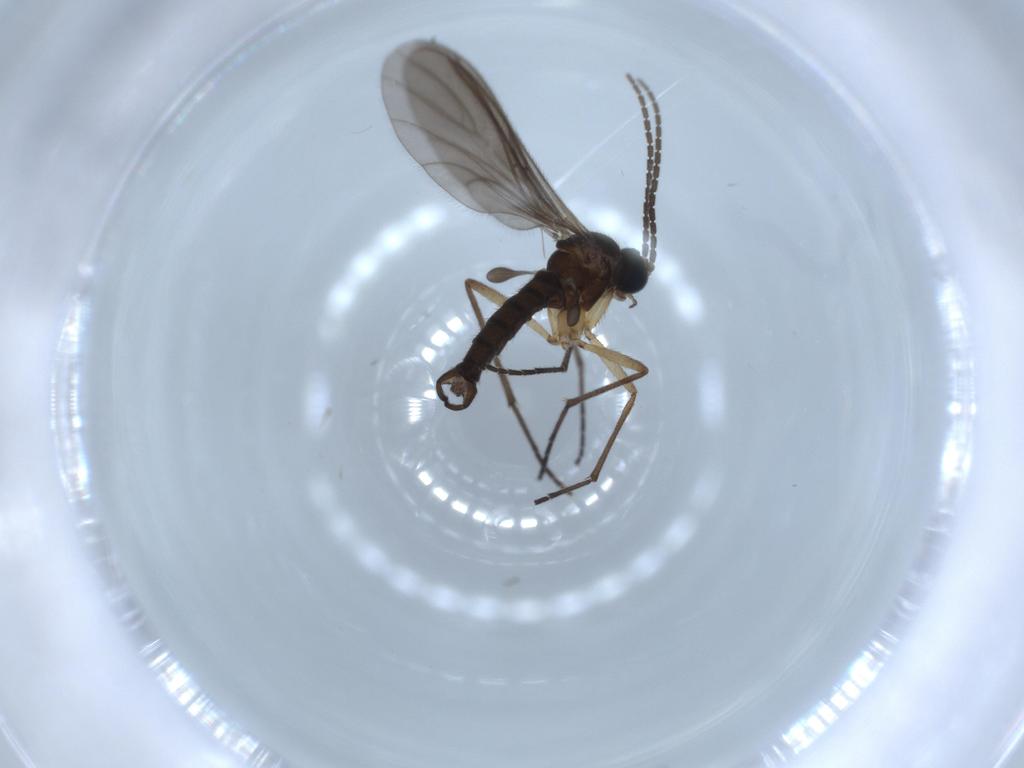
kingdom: Animalia
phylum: Arthropoda
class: Insecta
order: Diptera
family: Sciaridae
